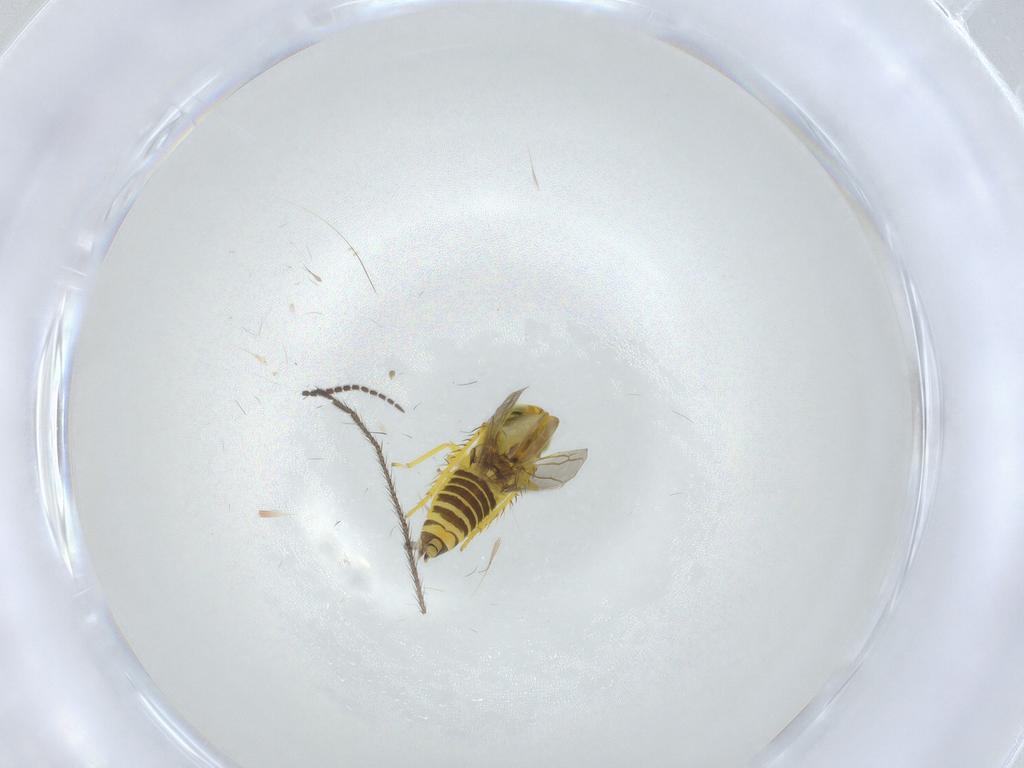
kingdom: Animalia
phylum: Arthropoda
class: Insecta
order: Hemiptera
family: Cicadellidae
